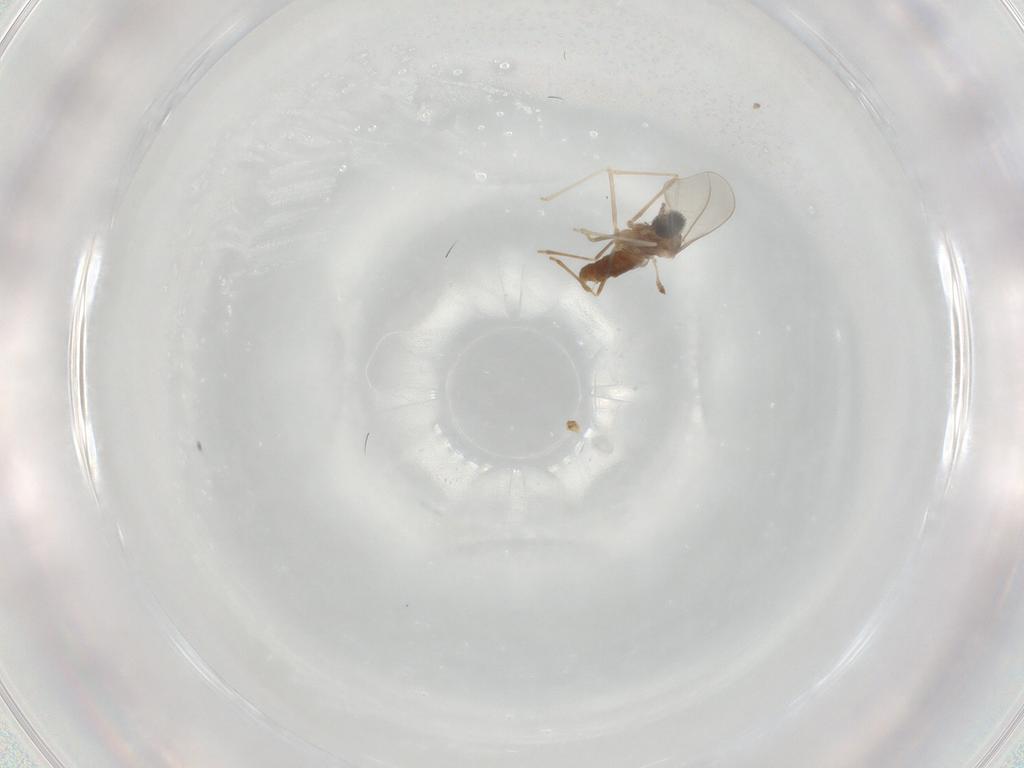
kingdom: Animalia
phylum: Arthropoda
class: Insecta
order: Diptera
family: Cecidomyiidae
